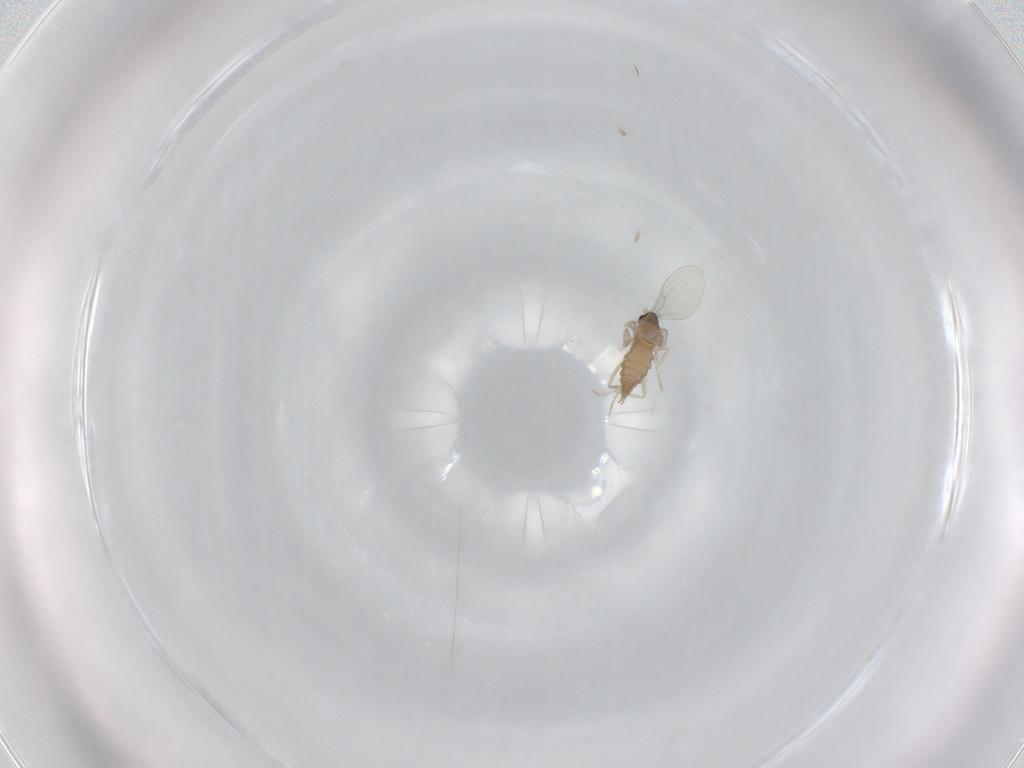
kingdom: Animalia
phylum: Arthropoda
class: Insecta
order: Diptera
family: Cecidomyiidae
